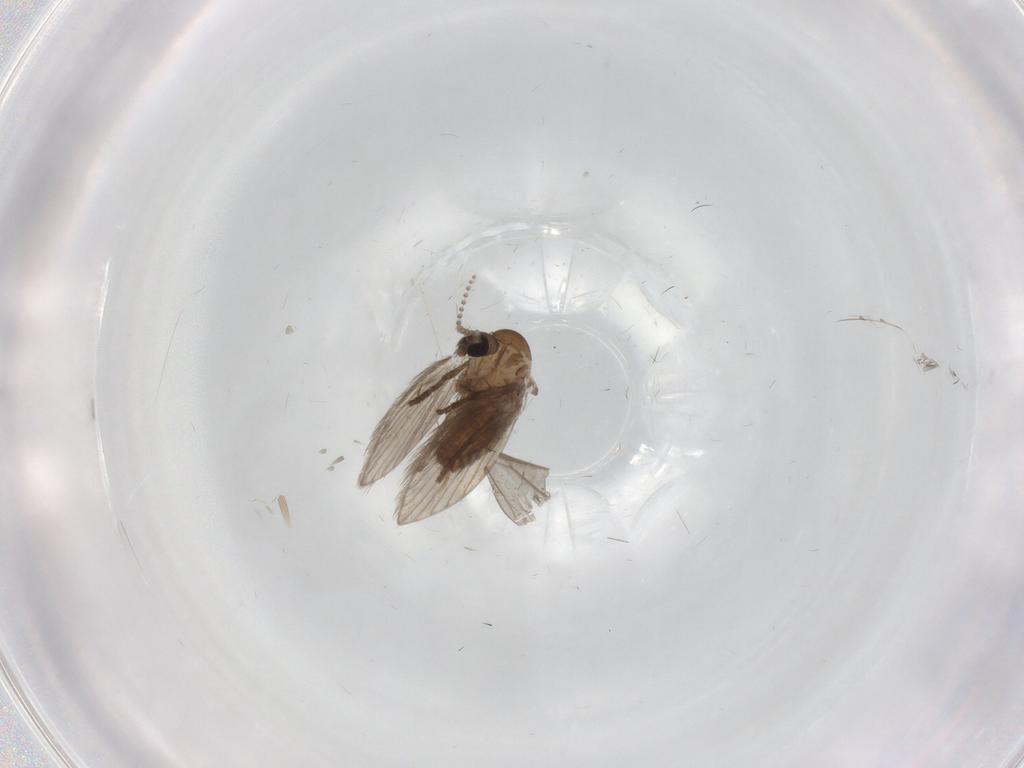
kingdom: Animalia
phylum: Arthropoda
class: Insecta
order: Diptera
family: Cecidomyiidae
